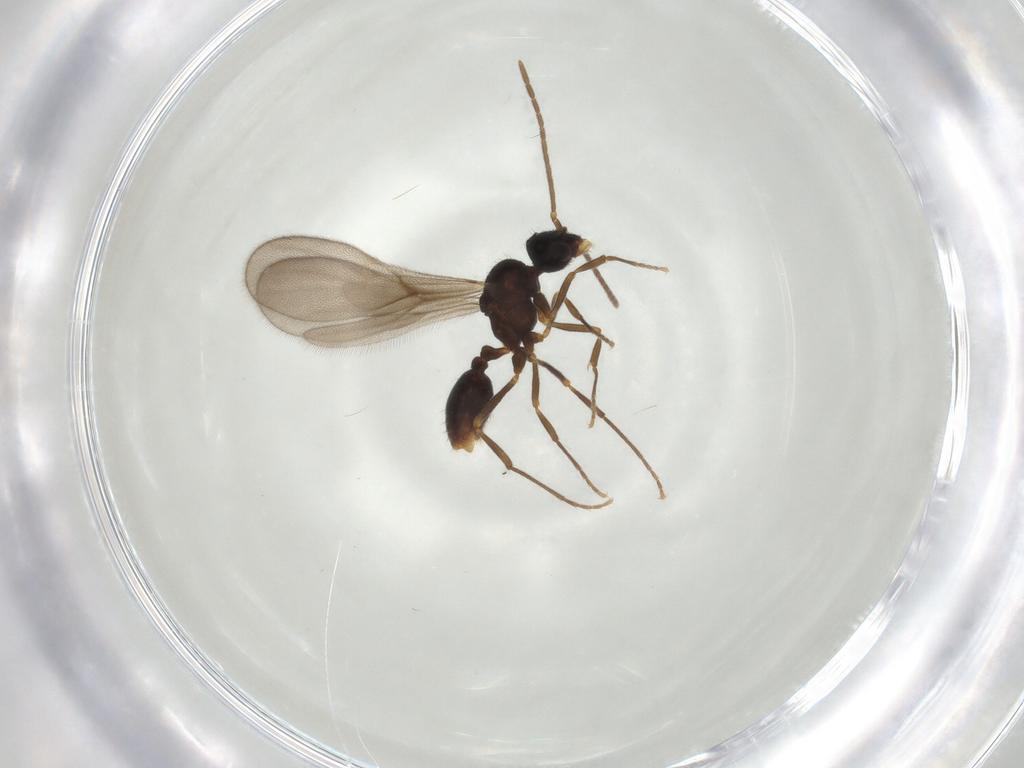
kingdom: Animalia
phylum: Arthropoda
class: Insecta
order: Hymenoptera
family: Formicidae
